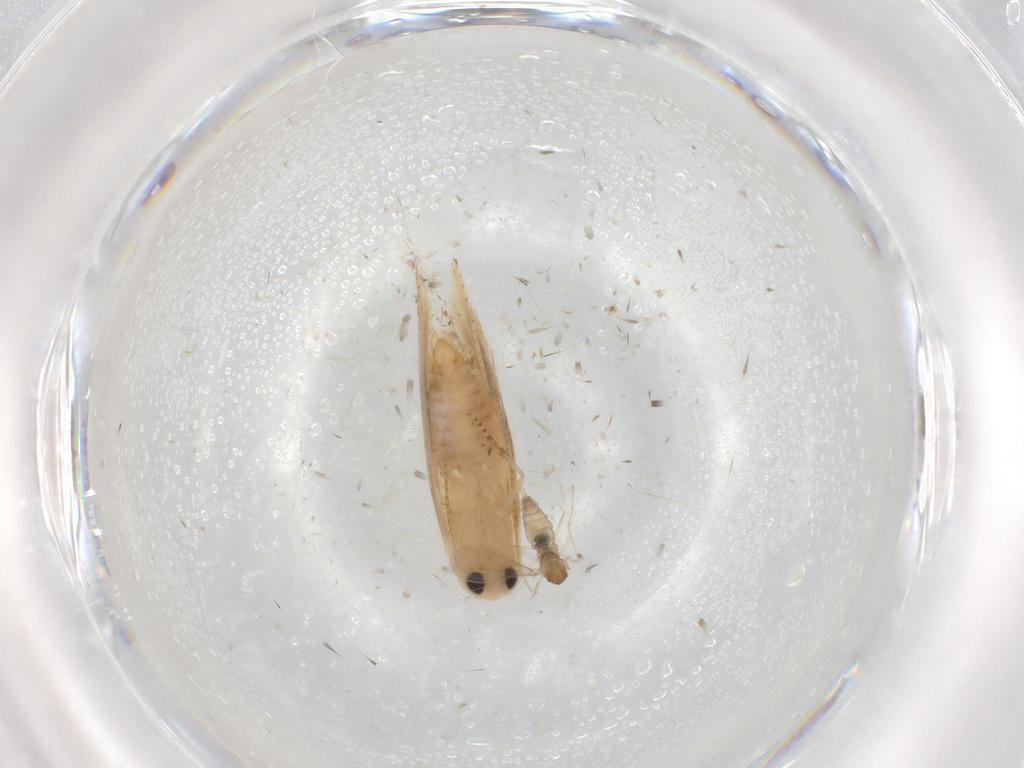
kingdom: Animalia
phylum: Arthropoda
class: Insecta
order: Lepidoptera
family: Bucculatricidae
